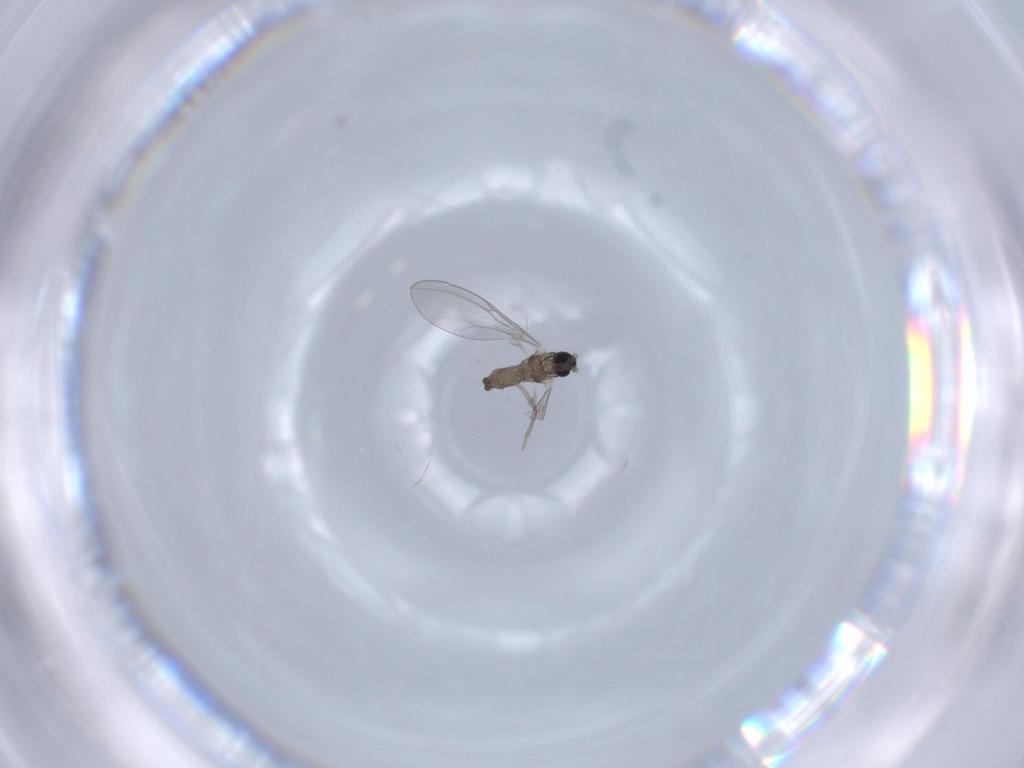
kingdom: Animalia
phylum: Arthropoda
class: Insecta
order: Diptera
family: Cecidomyiidae
